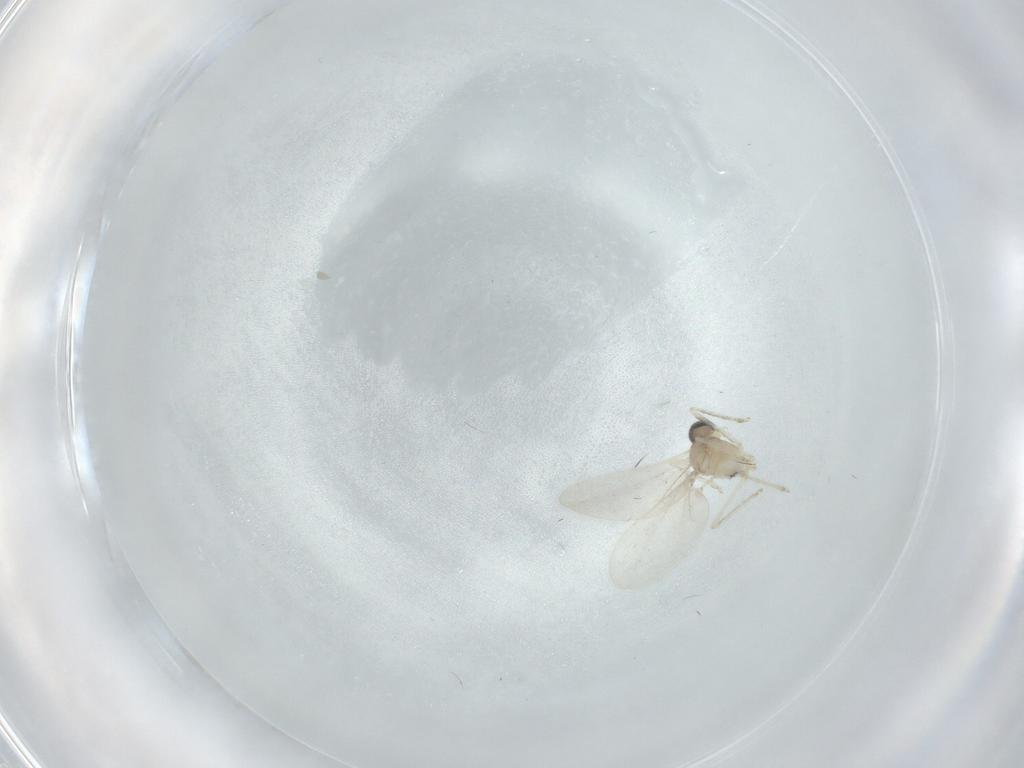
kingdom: Animalia
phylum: Arthropoda
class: Insecta
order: Diptera
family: Cecidomyiidae
